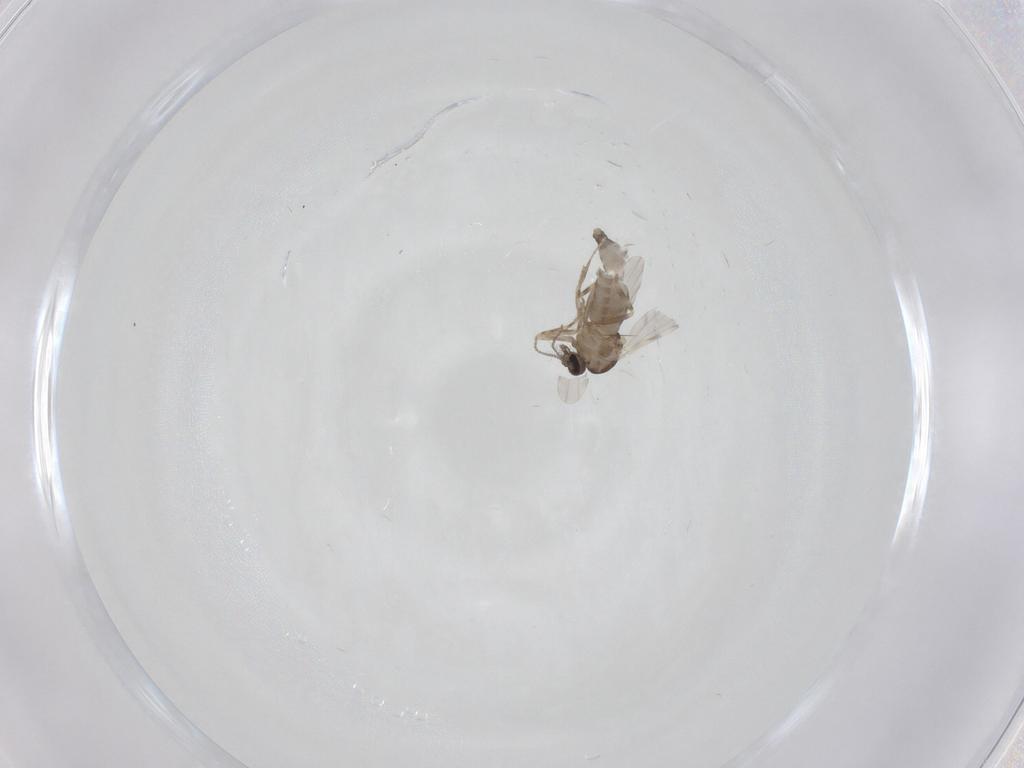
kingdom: Animalia
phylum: Arthropoda
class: Insecta
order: Diptera
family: Ceratopogonidae
